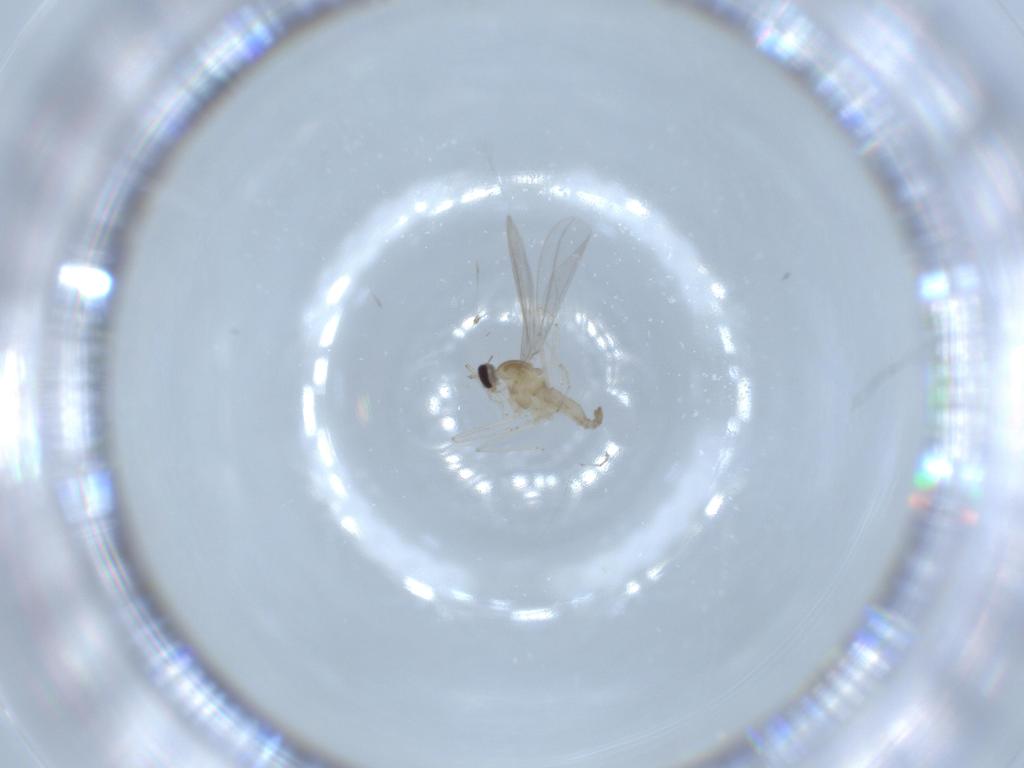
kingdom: Animalia
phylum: Arthropoda
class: Insecta
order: Diptera
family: Cecidomyiidae
